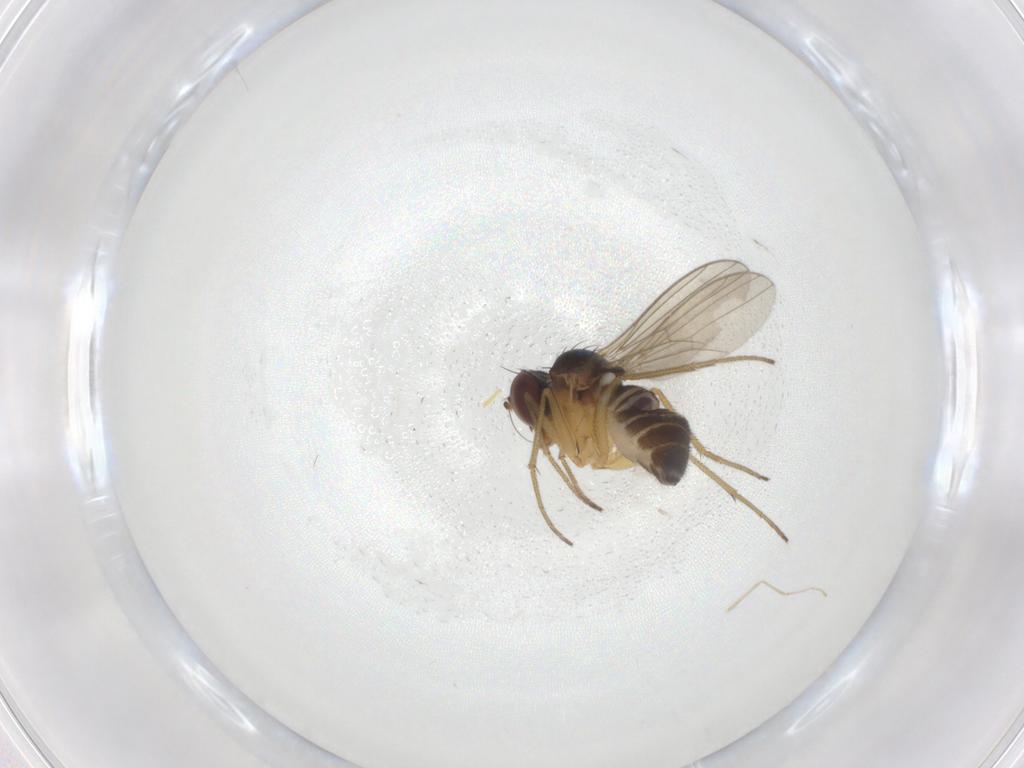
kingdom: Animalia
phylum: Arthropoda
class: Insecta
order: Diptera
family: Dolichopodidae
